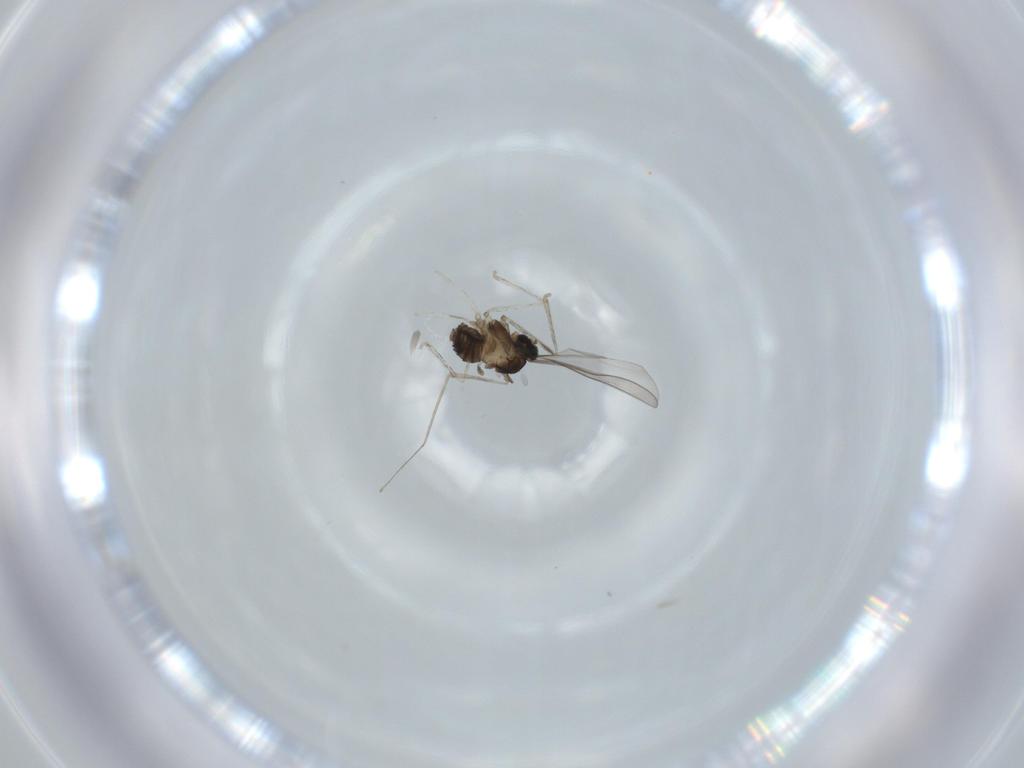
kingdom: Animalia
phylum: Arthropoda
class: Insecta
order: Diptera
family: Cecidomyiidae
